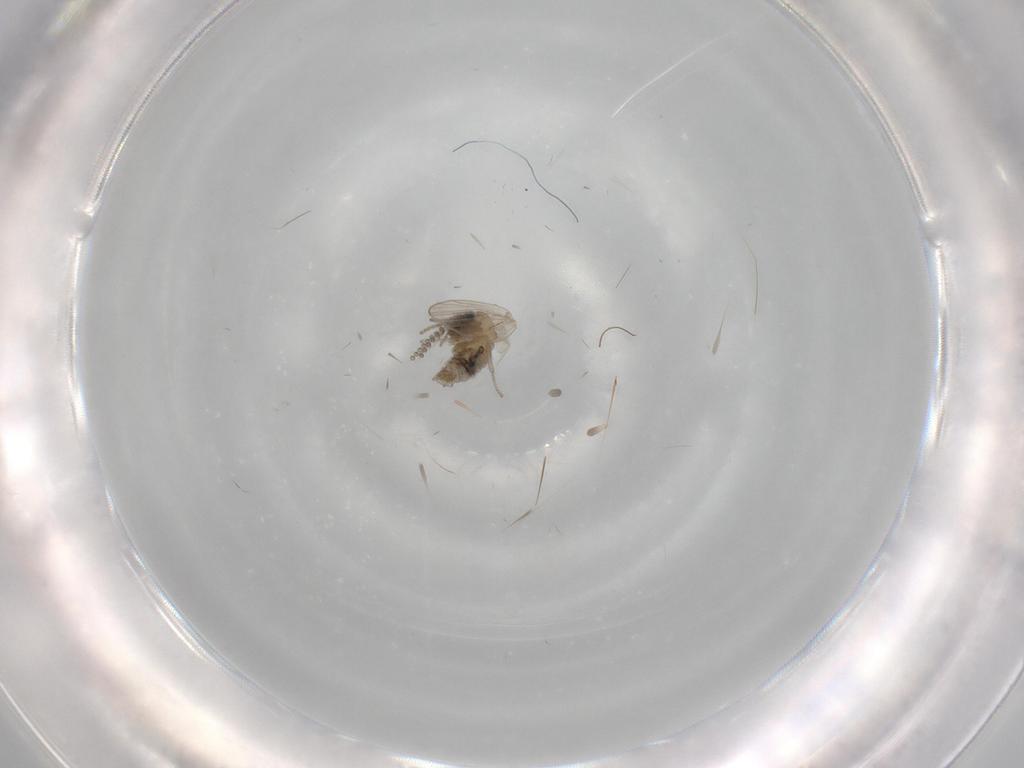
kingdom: Animalia
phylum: Arthropoda
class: Insecta
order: Diptera
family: Psychodidae
